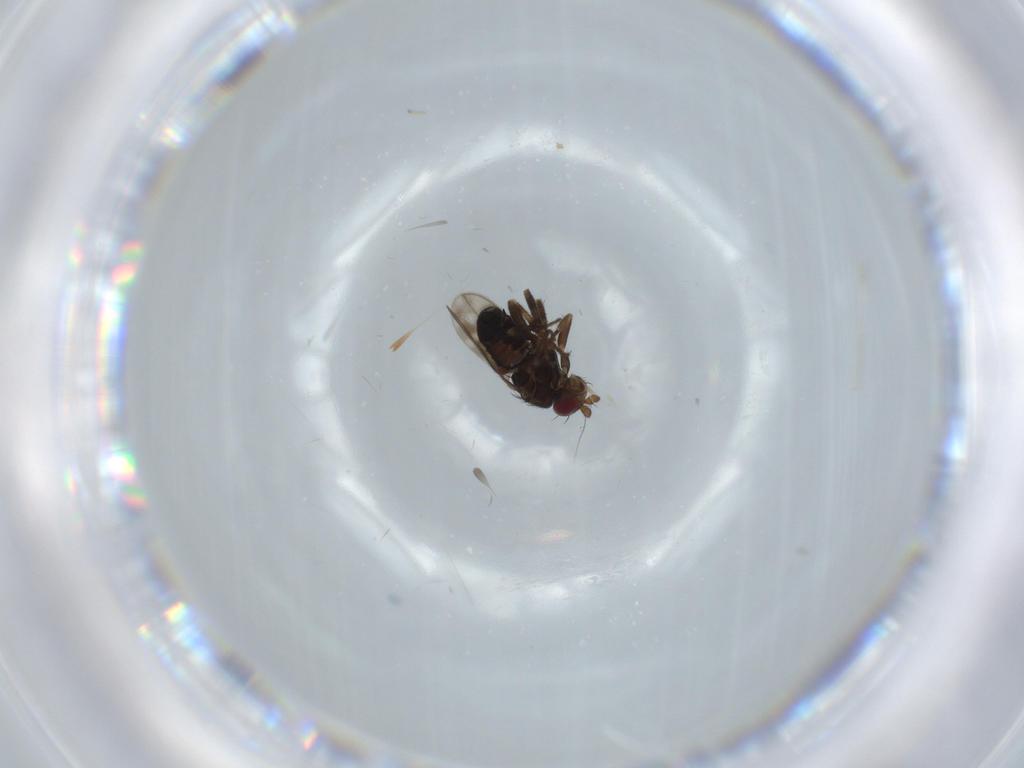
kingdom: Animalia
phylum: Arthropoda
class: Insecta
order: Diptera
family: Sphaeroceridae
